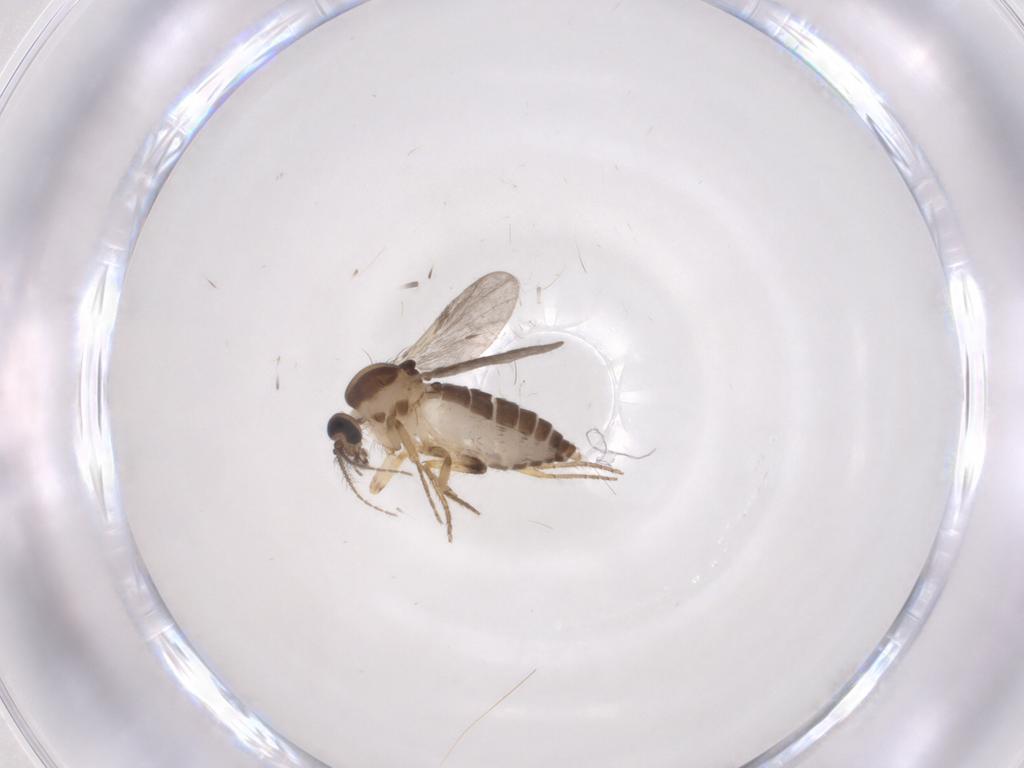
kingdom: Animalia
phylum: Arthropoda
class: Insecta
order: Diptera
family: Ceratopogonidae
